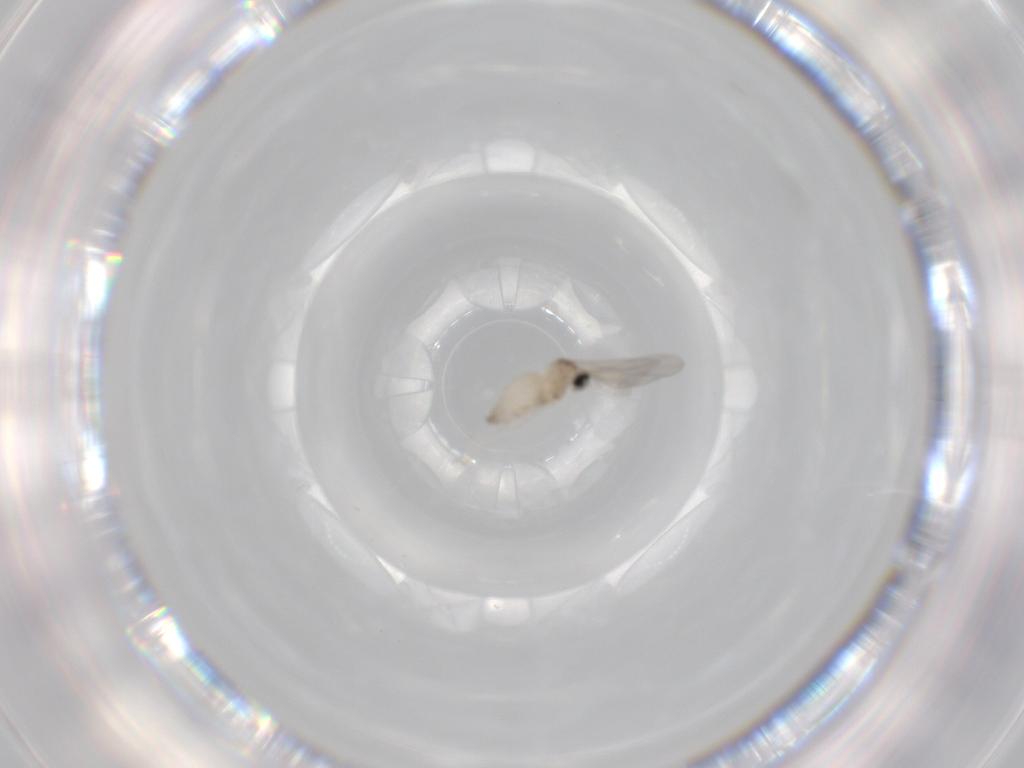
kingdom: Animalia
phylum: Arthropoda
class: Insecta
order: Diptera
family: Cecidomyiidae
